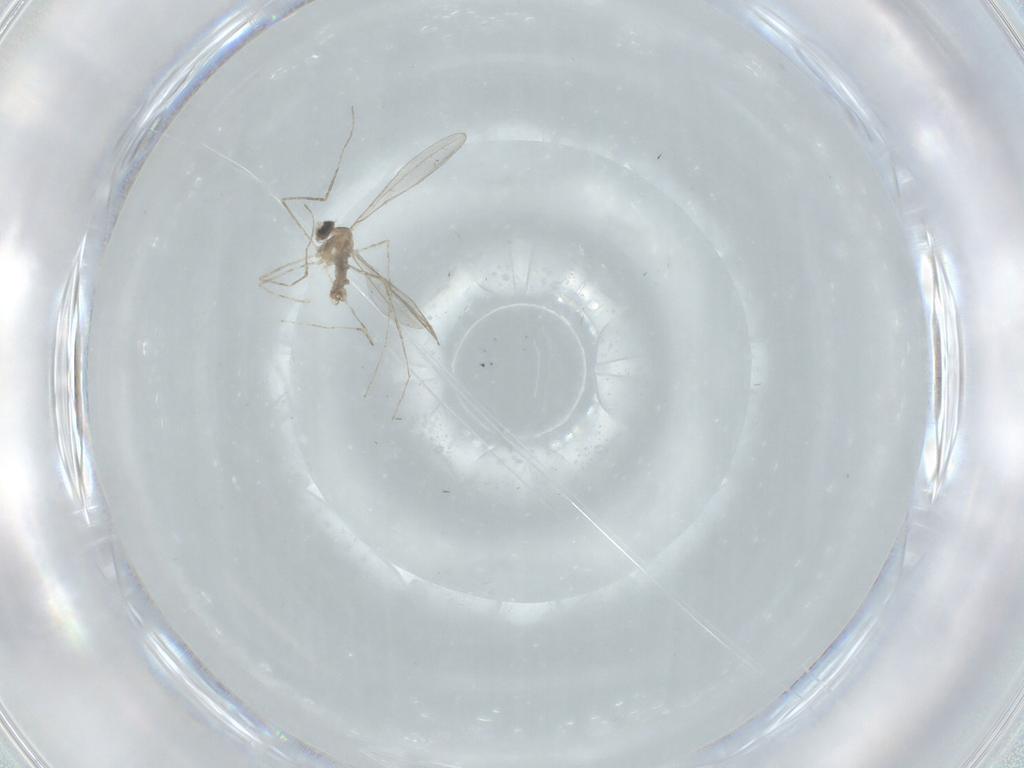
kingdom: Animalia
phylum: Arthropoda
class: Insecta
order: Diptera
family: Cecidomyiidae
